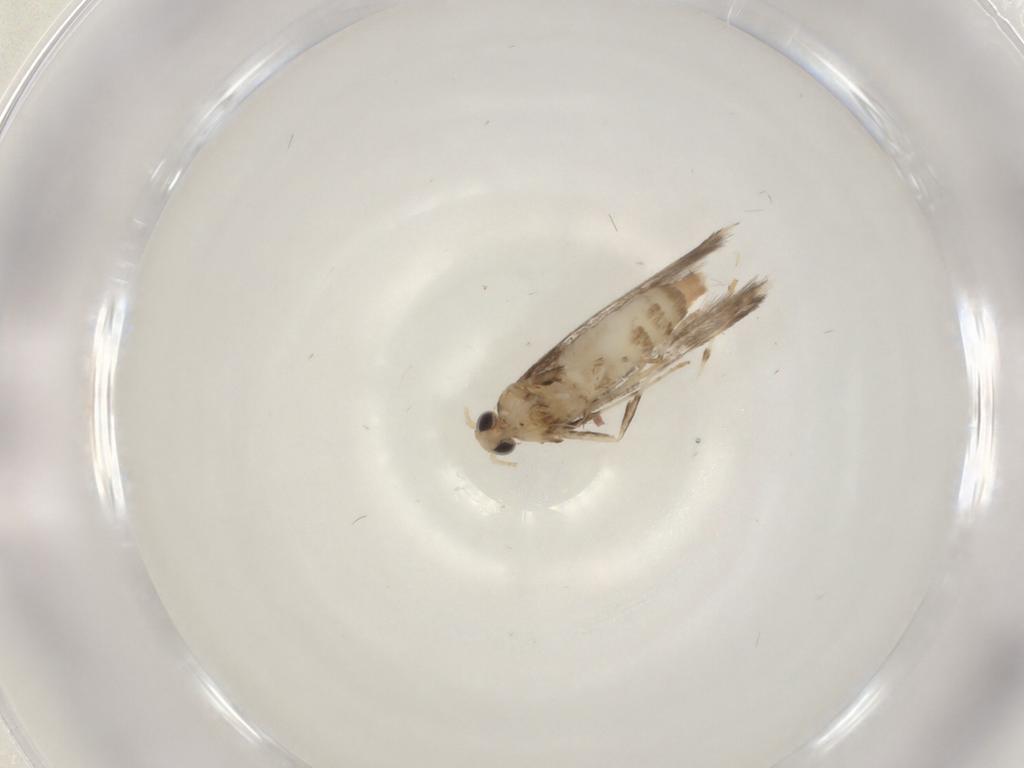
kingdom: Animalia
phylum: Arthropoda
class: Insecta
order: Lepidoptera
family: Gracillariidae
